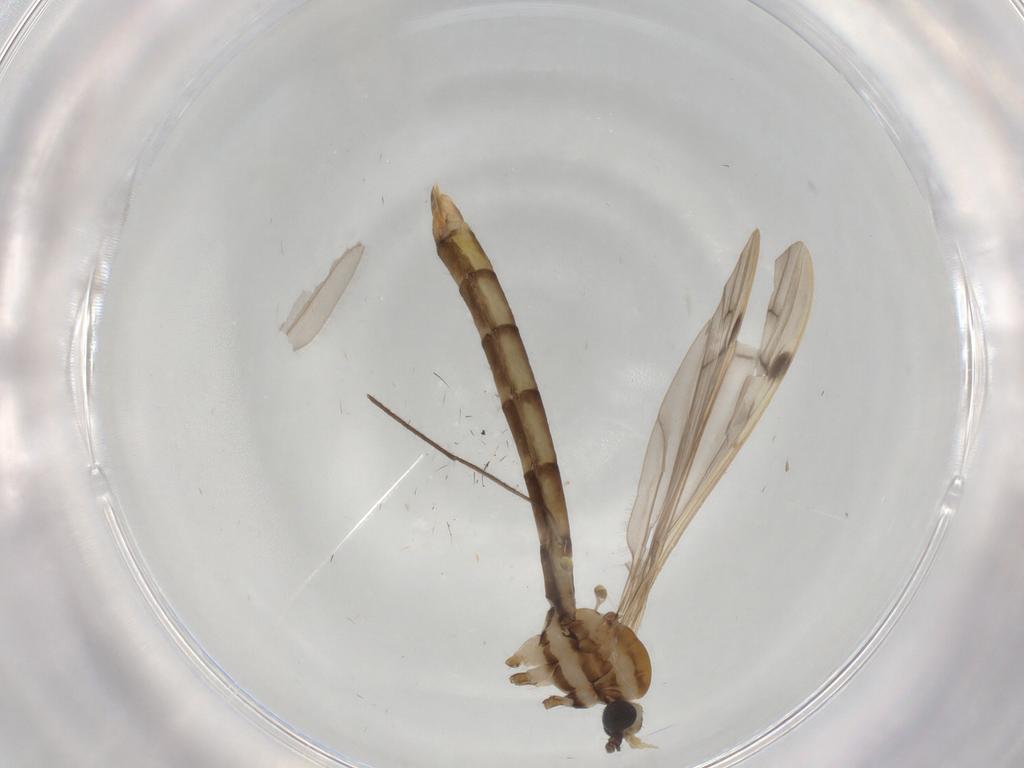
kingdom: Animalia
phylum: Arthropoda
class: Insecta
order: Diptera
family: Limoniidae
